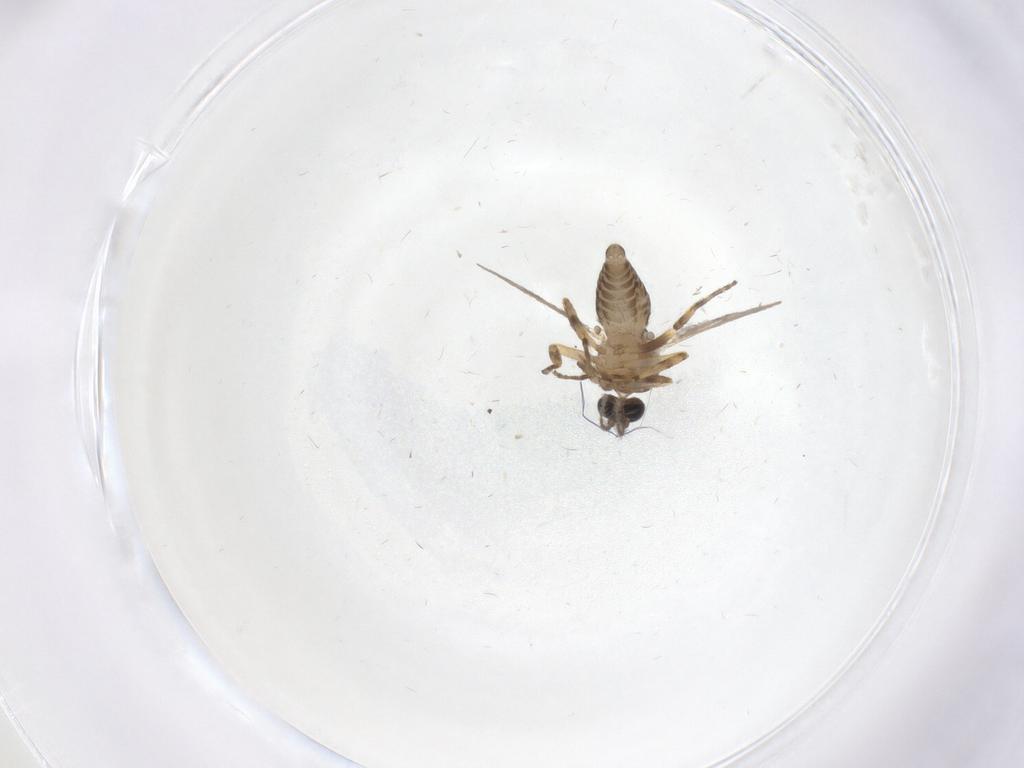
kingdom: Animalia
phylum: Arthropoda
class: Insecta
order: Diptera
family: Ceratopogonidae
